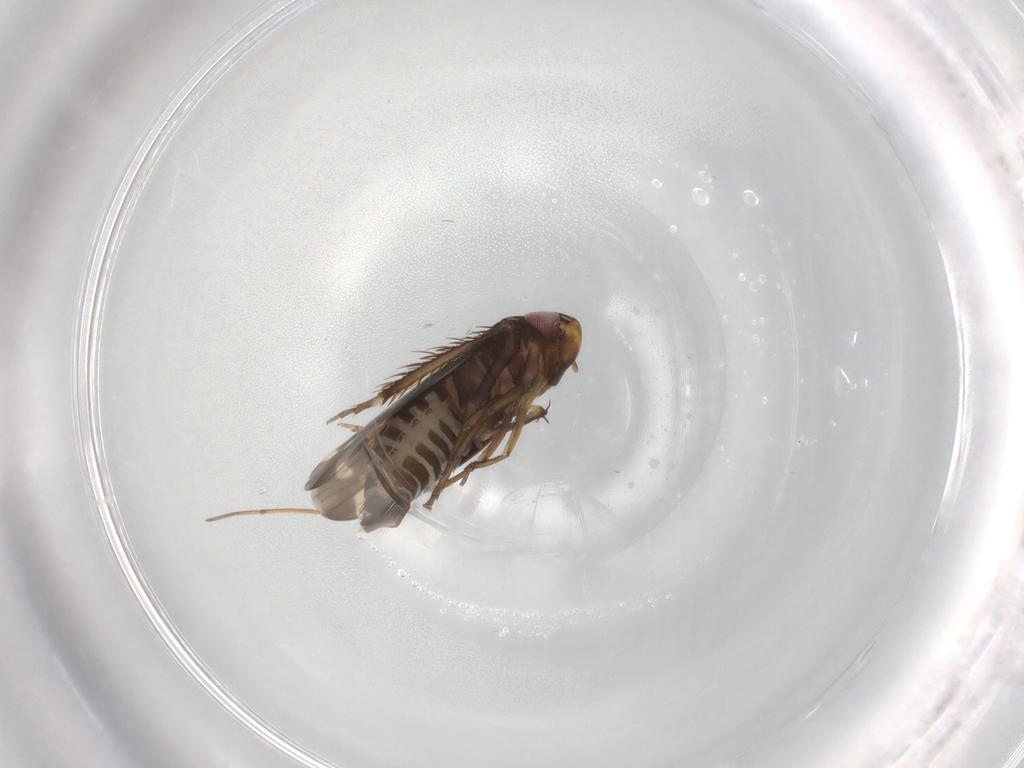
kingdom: Animalia
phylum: Arthropoda
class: Insecta
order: Hemiptera
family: Cicadellidae
